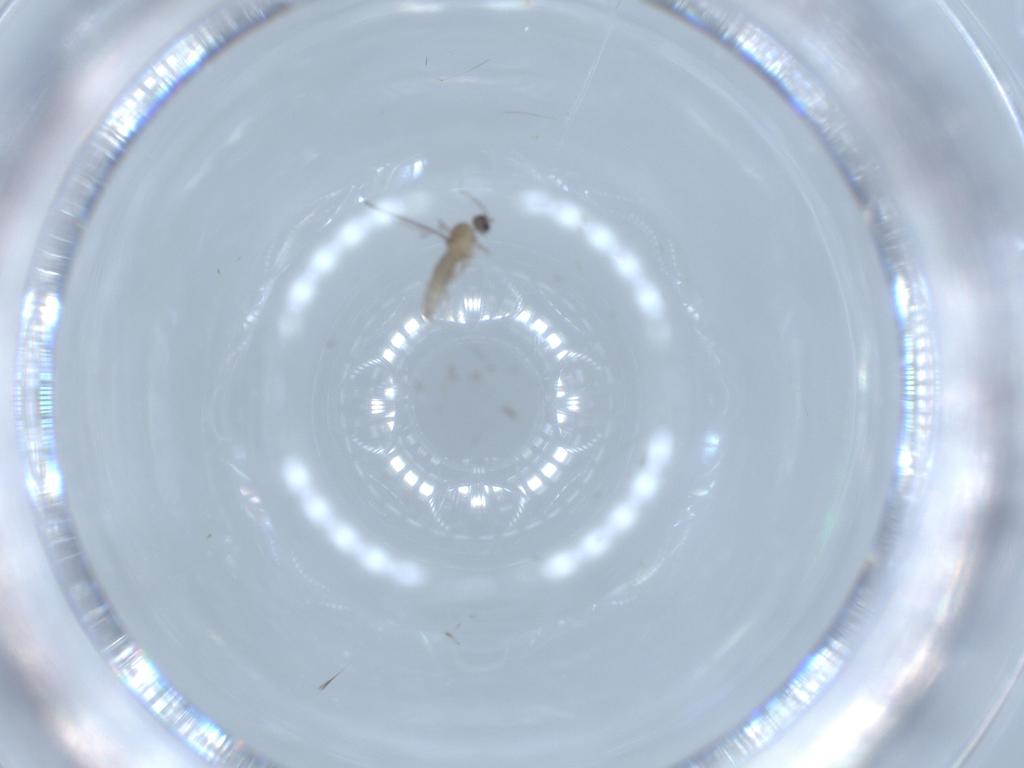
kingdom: Animalia
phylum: Arthropoda
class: Insecta
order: Diptera
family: Cecidomyiidae
